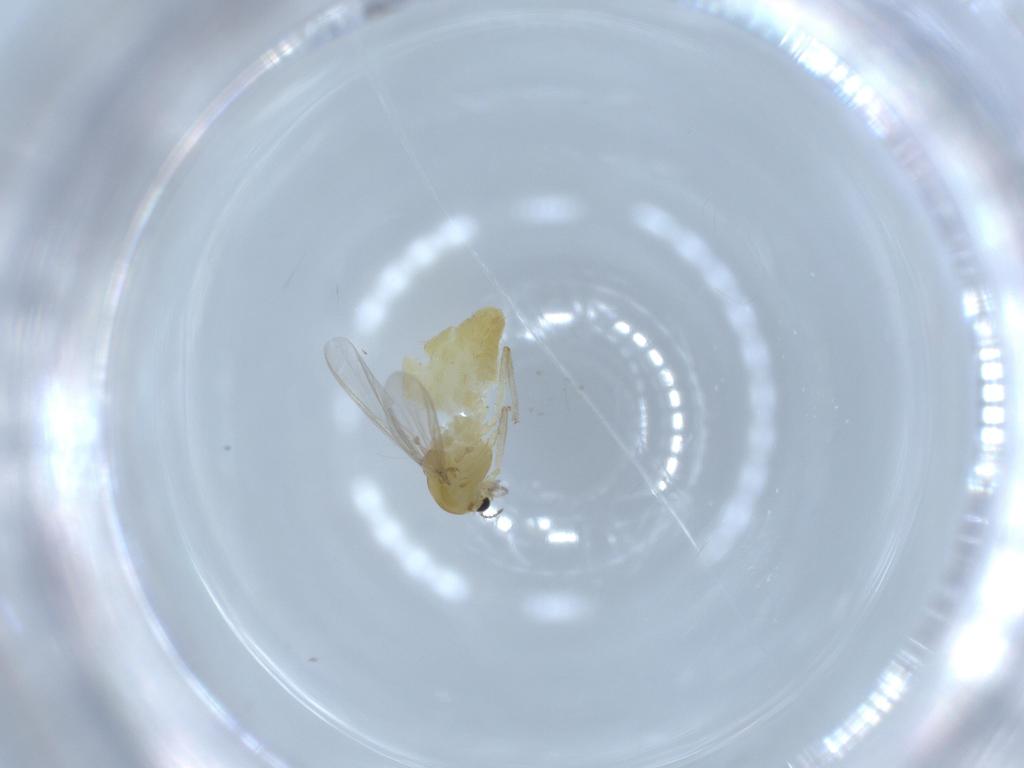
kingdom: Animalia
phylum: Arthropoda
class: Insecta
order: Diptera
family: Chironomidae
